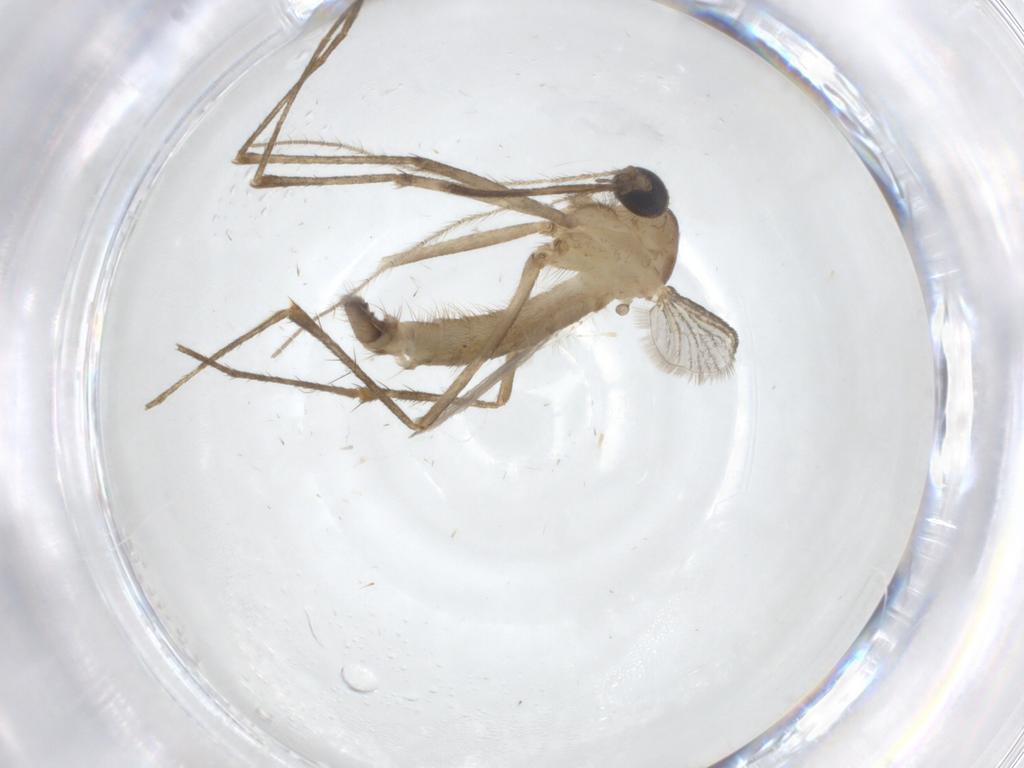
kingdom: Animalia
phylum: Arthropoda
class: Insecta
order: Diptera
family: Culicidae
